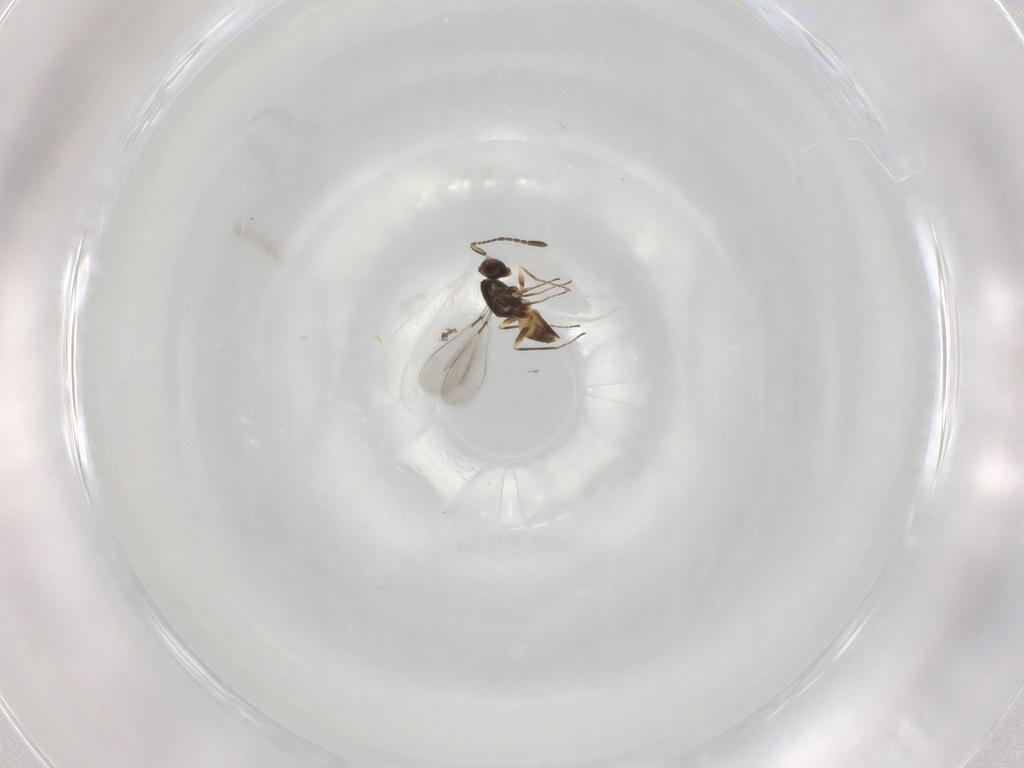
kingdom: Animalia
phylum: Arthropoda
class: Insecta
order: Hymenoptera
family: Mymaridae
